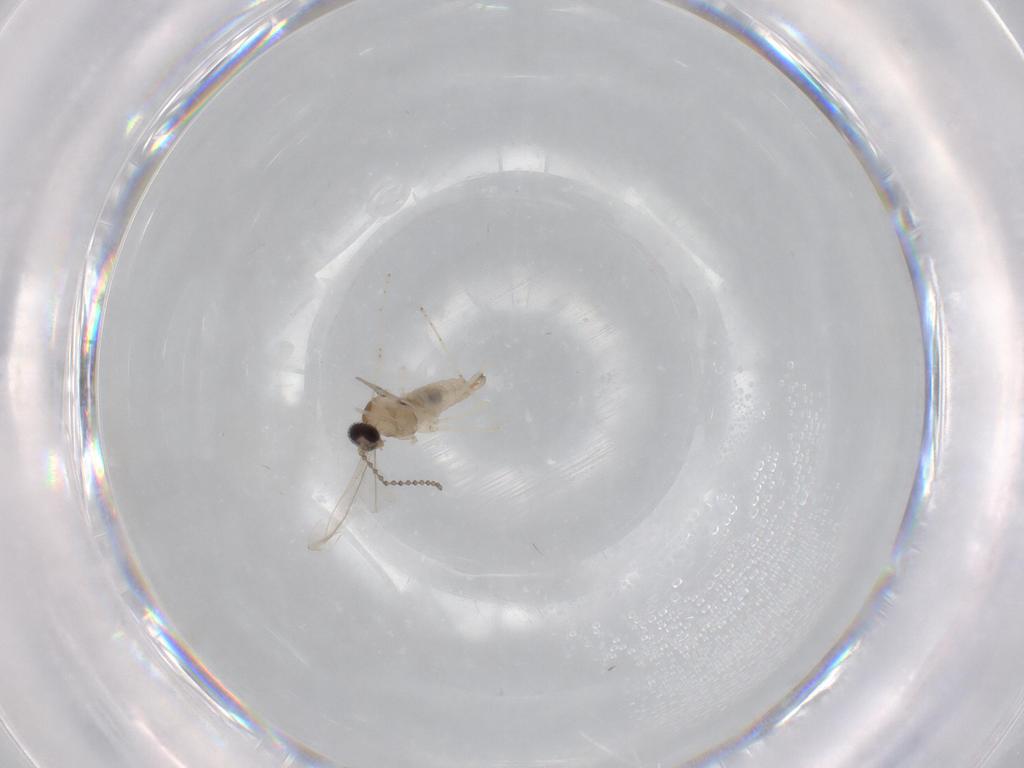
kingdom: Animalia
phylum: Arthropoda
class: Insecta
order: Diptera
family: Cecidomyiidae
